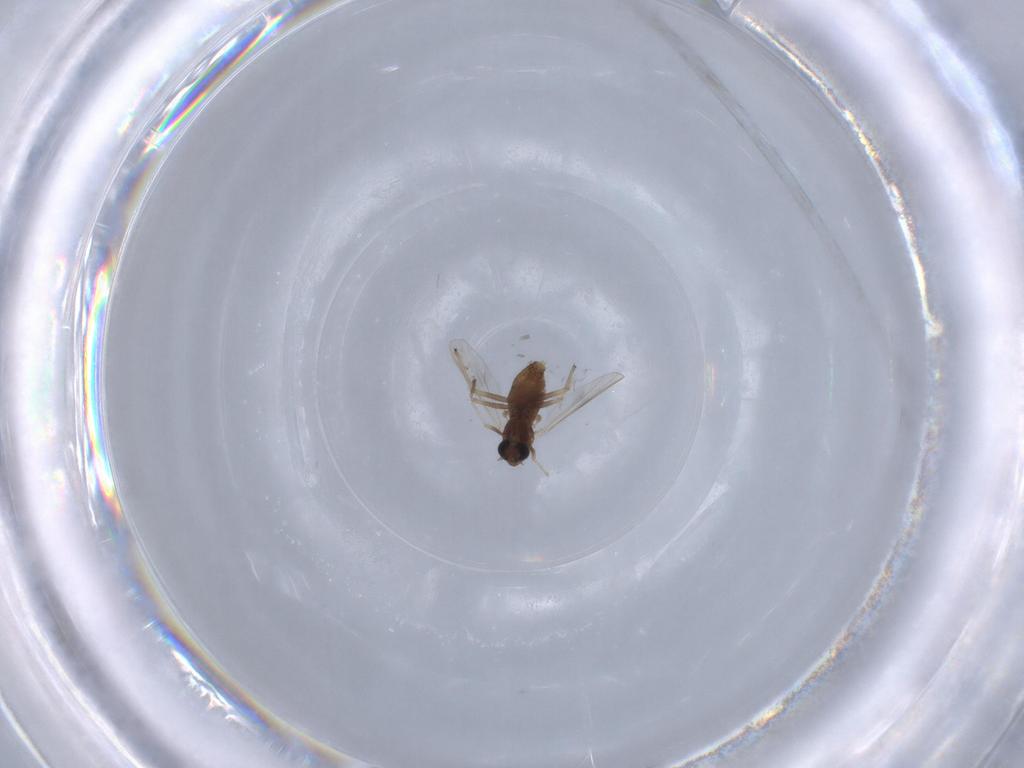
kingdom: Animalia
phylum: Arthropoda
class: Insecta
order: Diptera
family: Chironomidae
